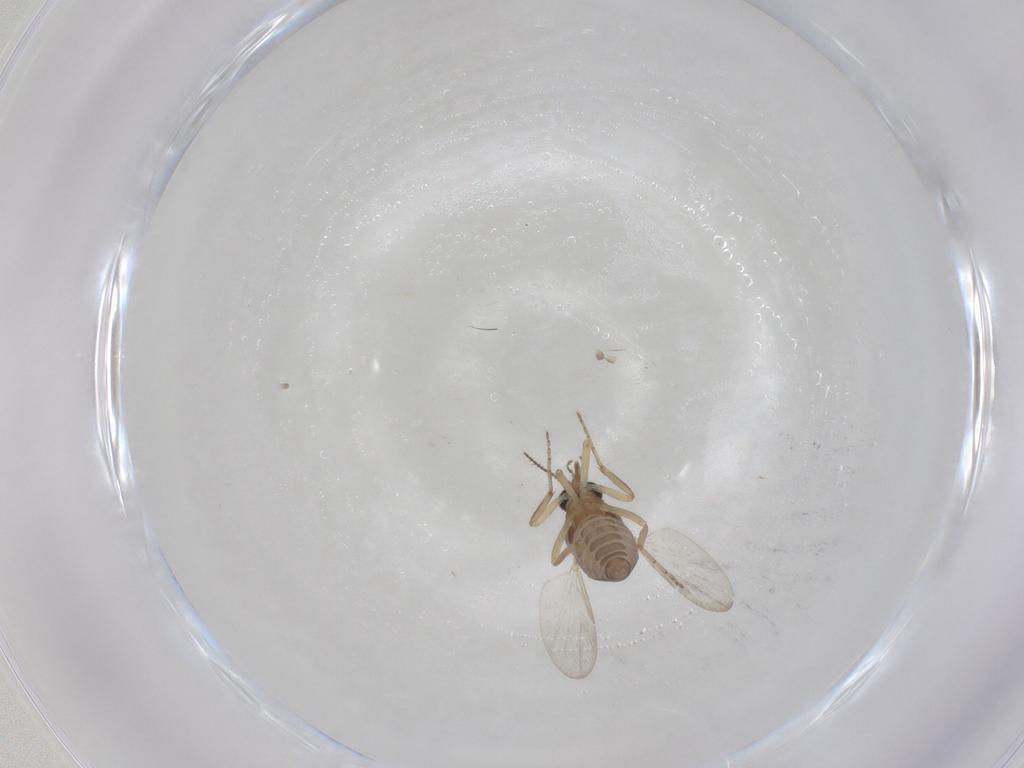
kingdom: Animalia
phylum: Arthropoda
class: Insecta
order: Diptera
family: Ceratopogonidae
